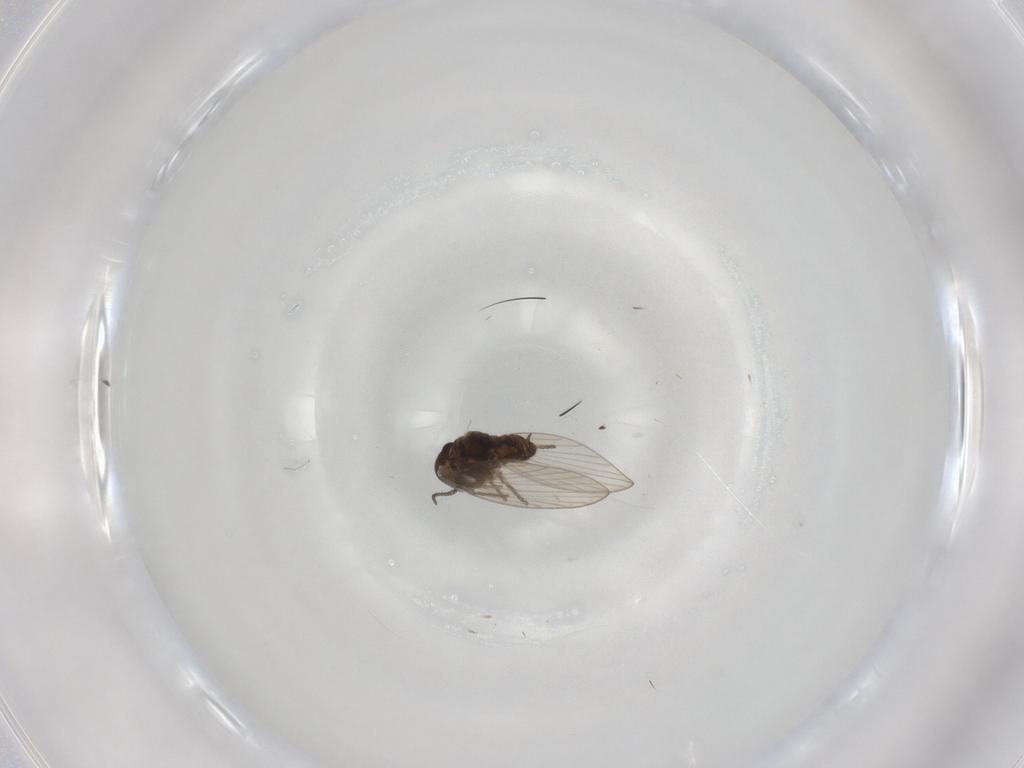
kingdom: Animalia
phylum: Arthropoda
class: Insecta
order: Diptera
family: Psychodidae
